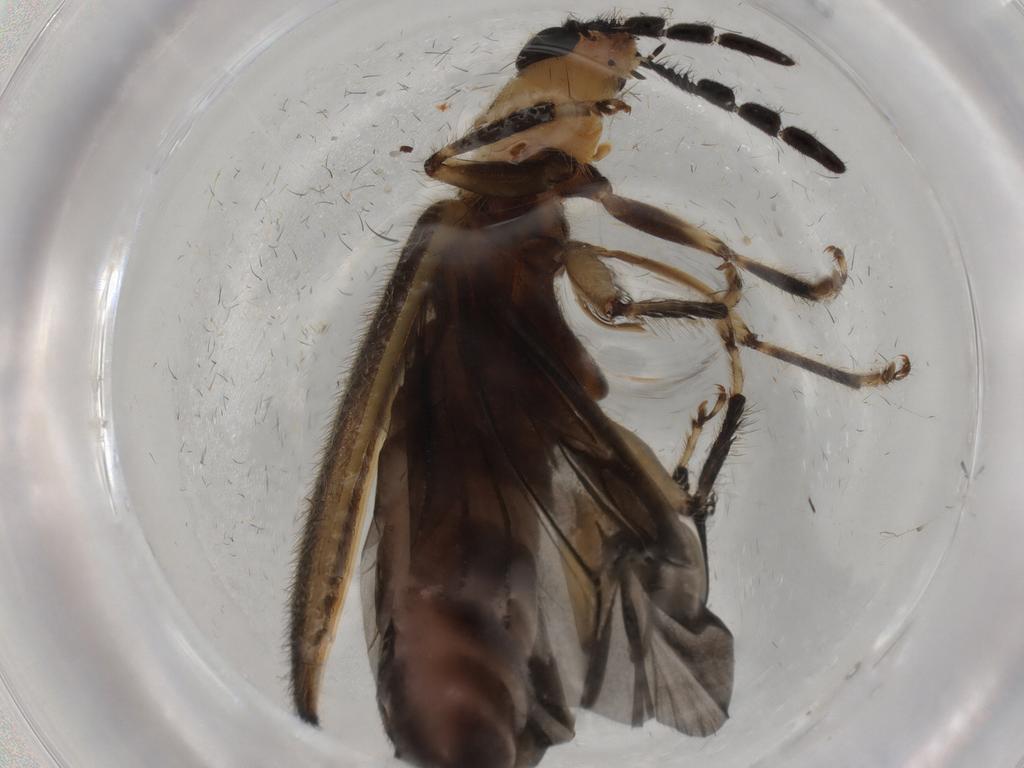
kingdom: Animalia
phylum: Arthropoda
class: Insecta
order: Coleoptera
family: Cleridae
